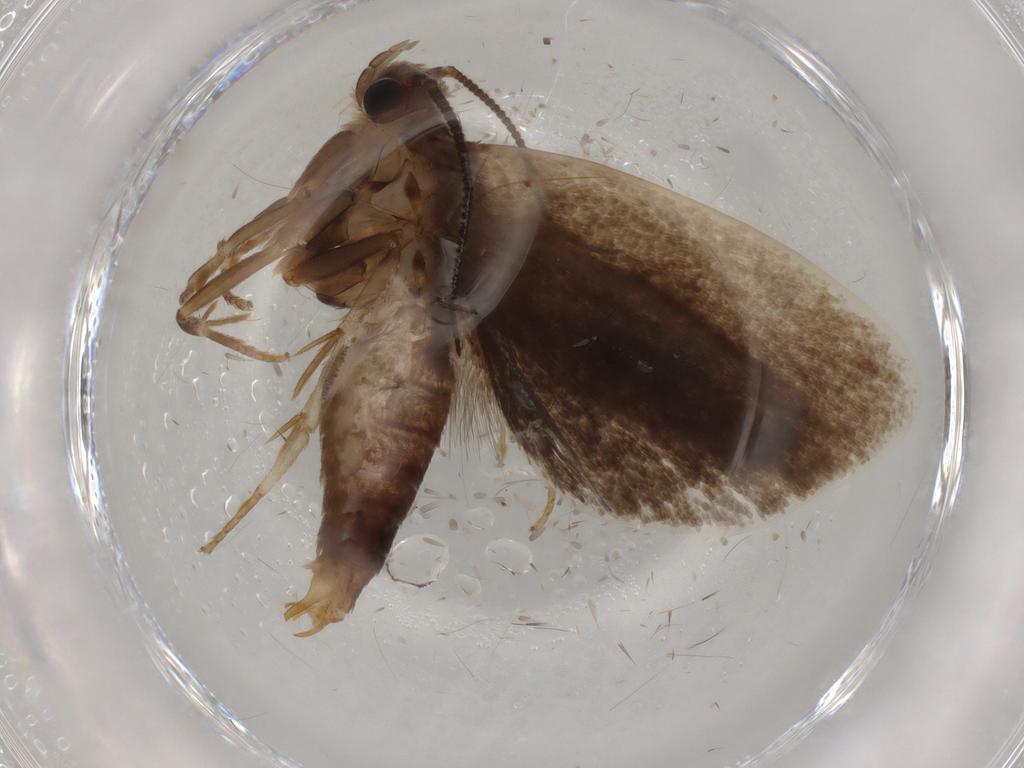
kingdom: Animalia
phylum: Arthropoda
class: Insecta
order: Lepidoptera
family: Tineidae
